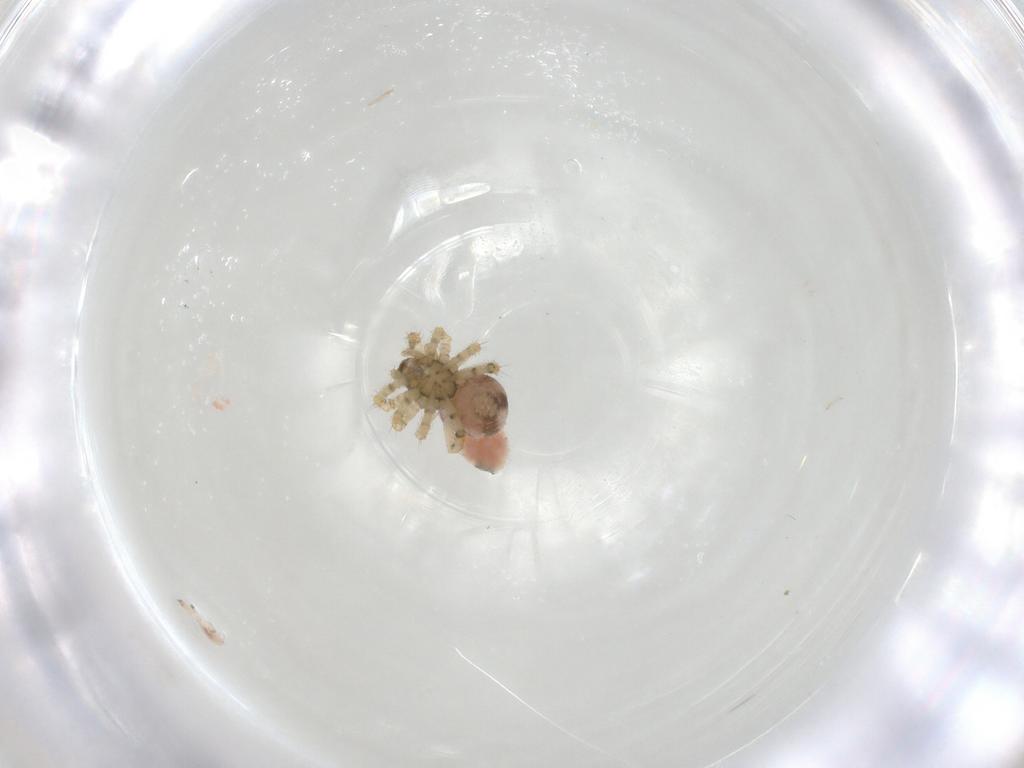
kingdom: Animalia
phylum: Arthropoda
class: Arachnida
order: Araneae
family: Theridiidae
